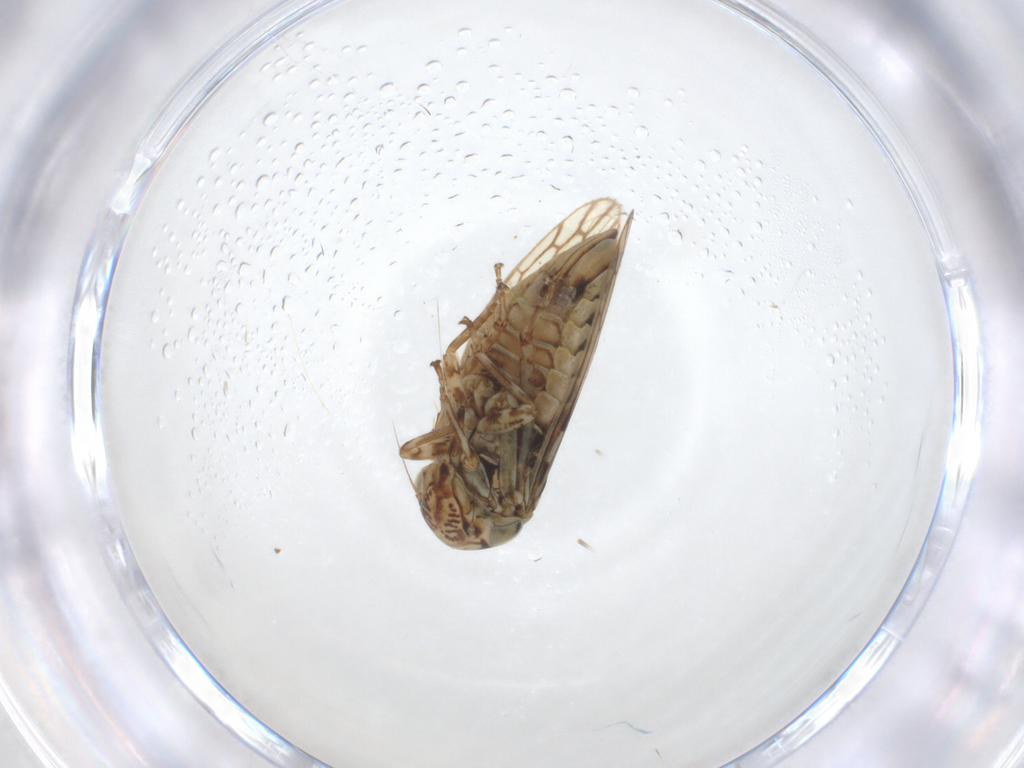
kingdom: Animalia
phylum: Arthropoda
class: Insecta
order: Hemiptera
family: Cicadellidae
